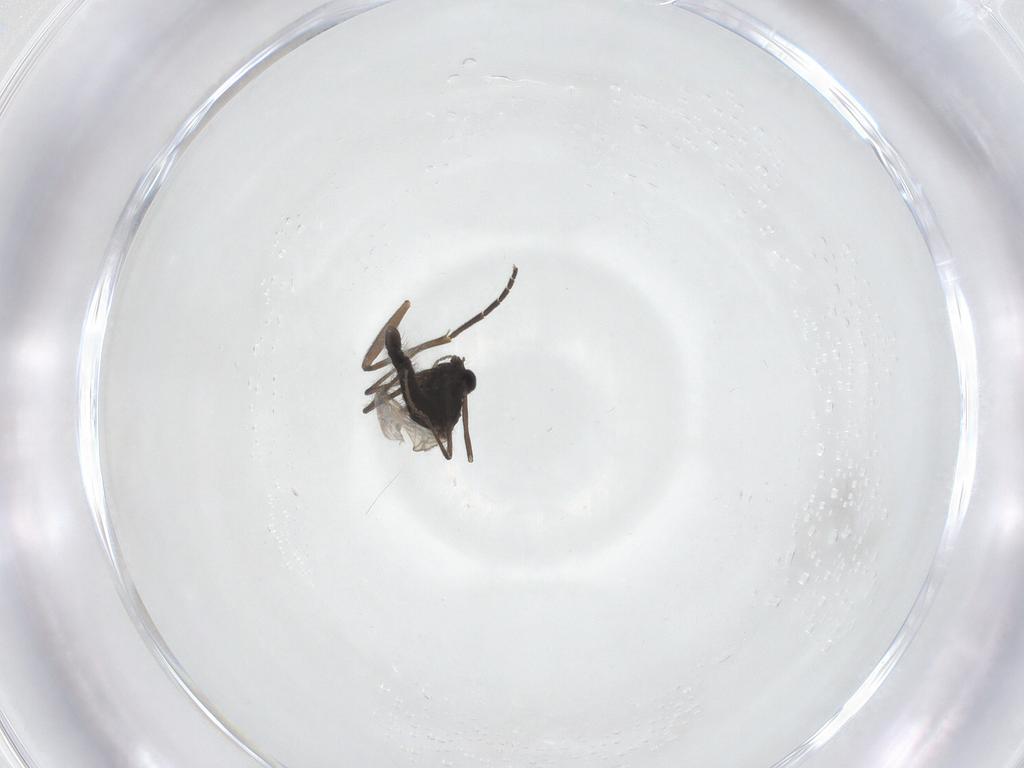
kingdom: Animalia
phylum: Arthropoda
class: Insecta
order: Diptera
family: Sciaridae
